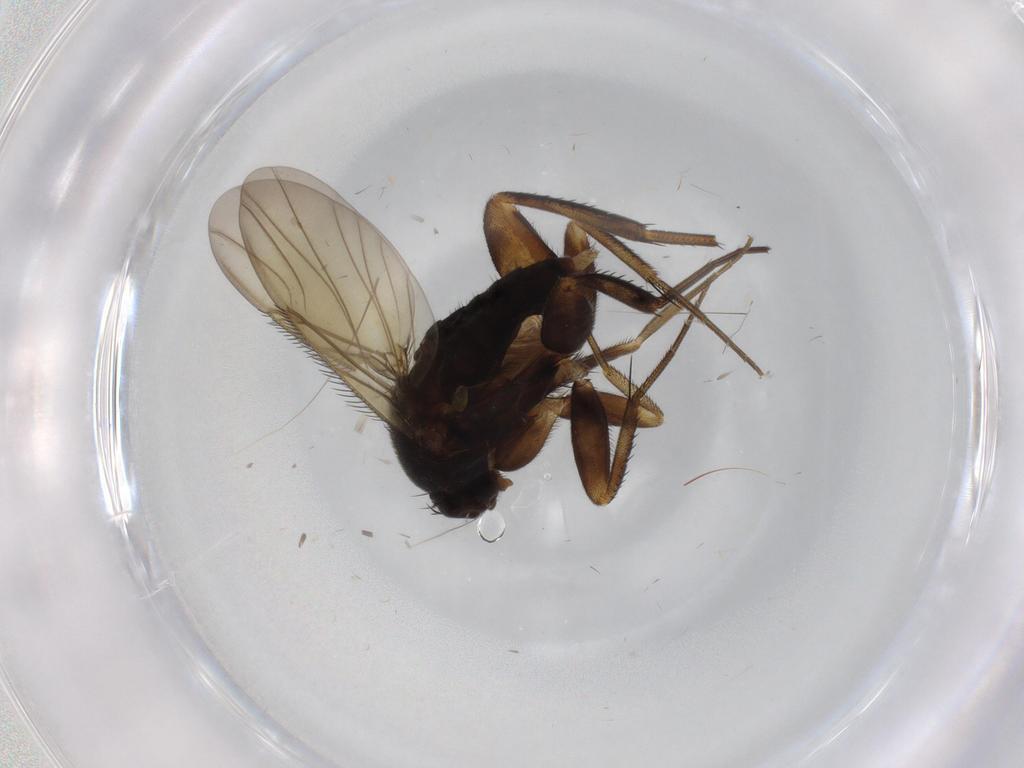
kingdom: Animalia
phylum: Arthropoda
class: Insecta
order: Diptera
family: Phoridae
